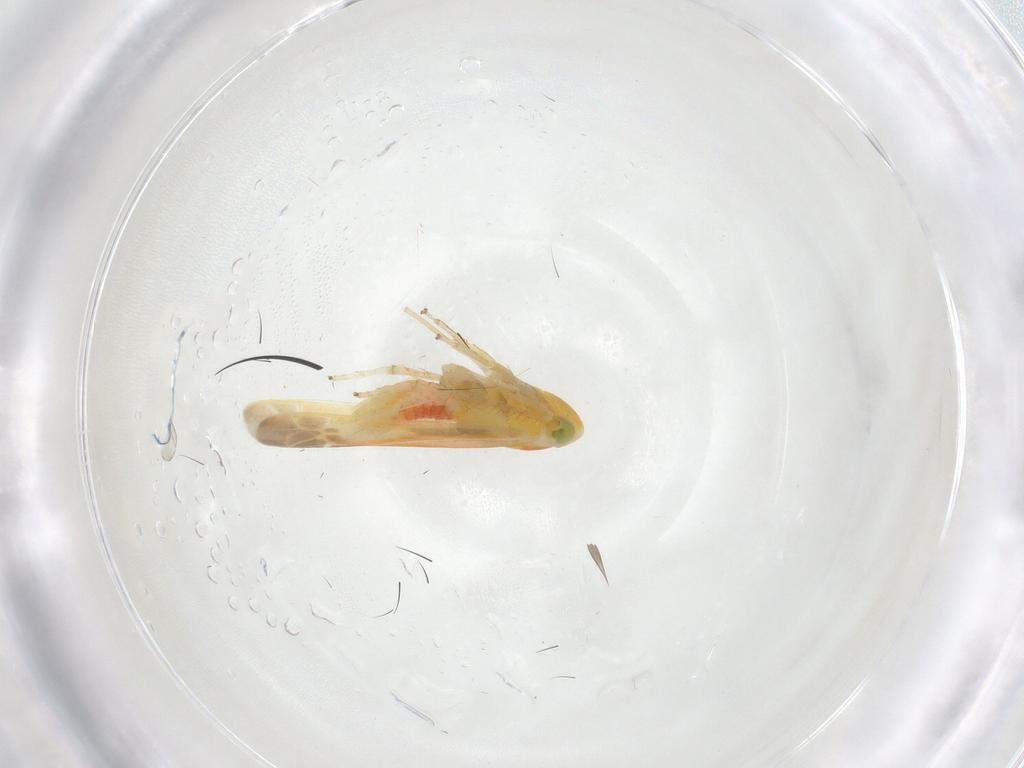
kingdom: Animalia
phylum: Arthropoda
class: Insecta
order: Hemiptera
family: Cicadellidae
